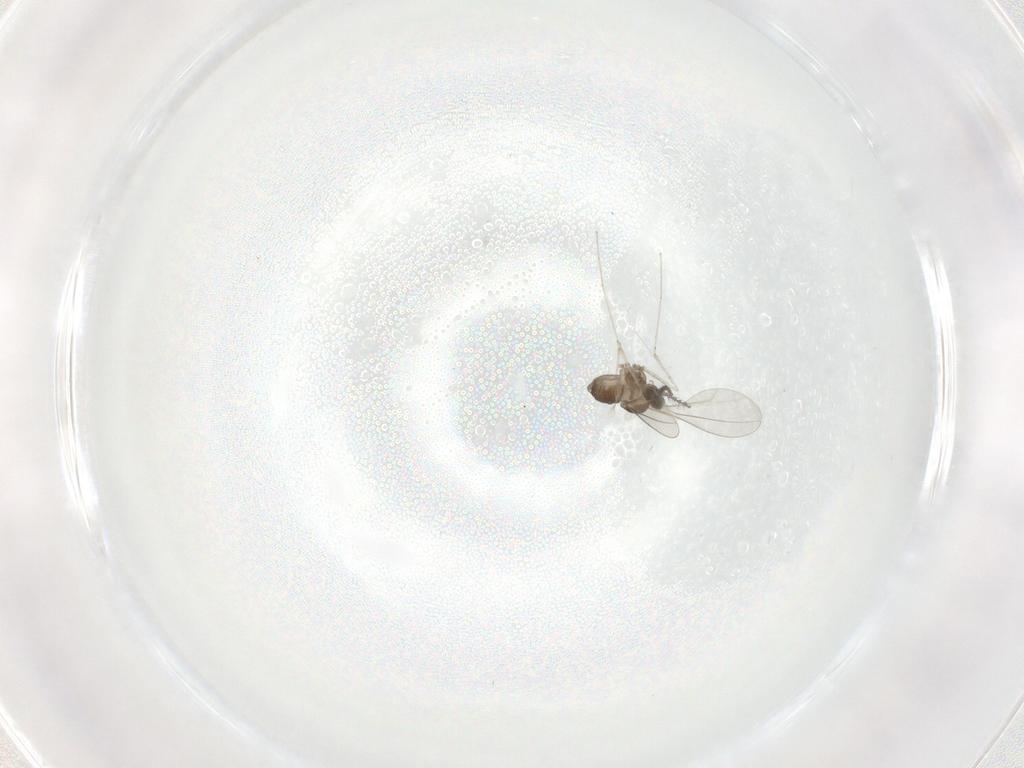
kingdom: Animalia
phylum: Arthropoda
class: Insecta
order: Diptera
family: Cecidomyiidae
